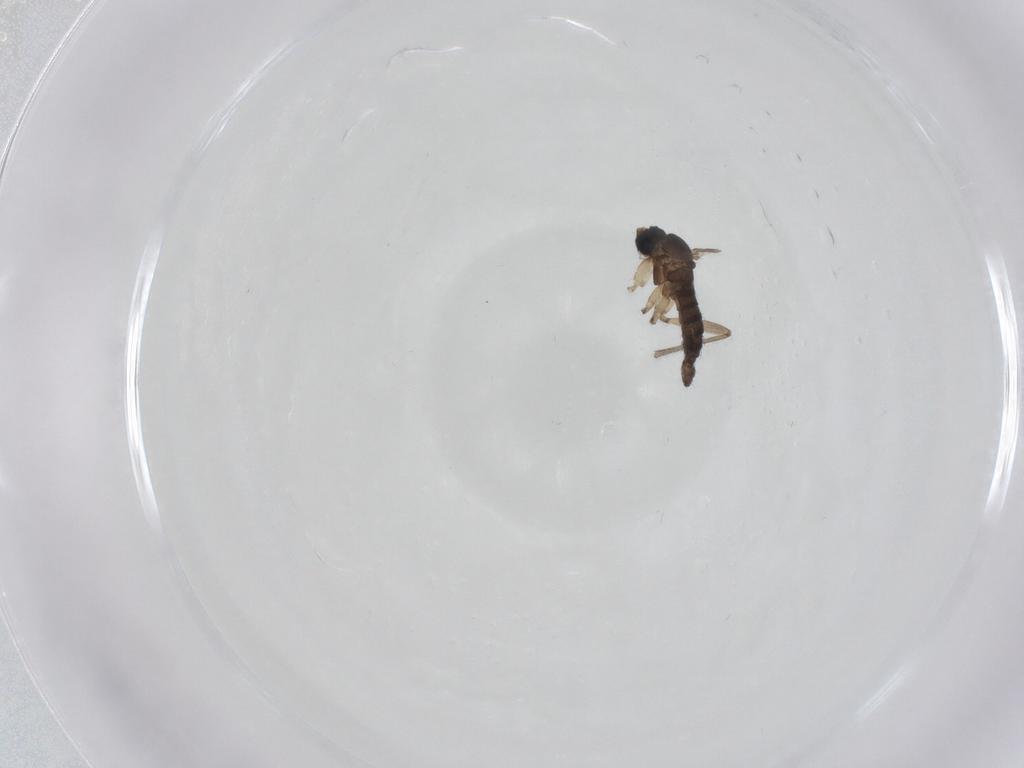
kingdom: Animalia
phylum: Arthropoda
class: Insecta
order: Diptera
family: Sciaridae
